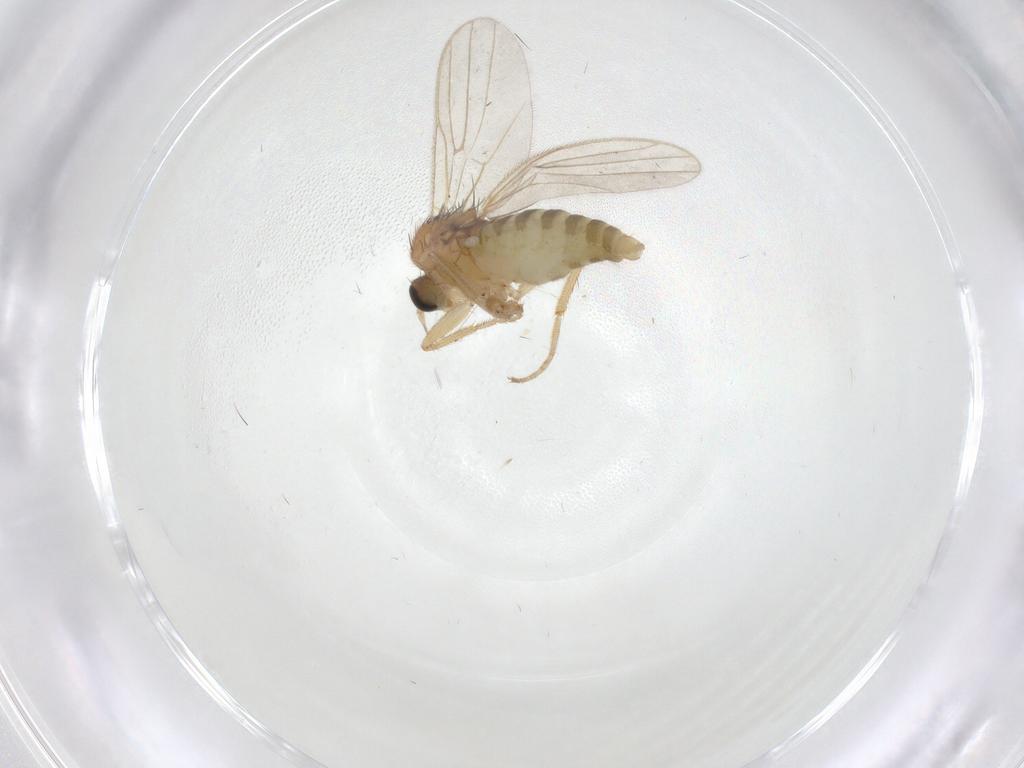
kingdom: Animalia
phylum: Arthropoda
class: Insecta
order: Diptera
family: Hybotidae
